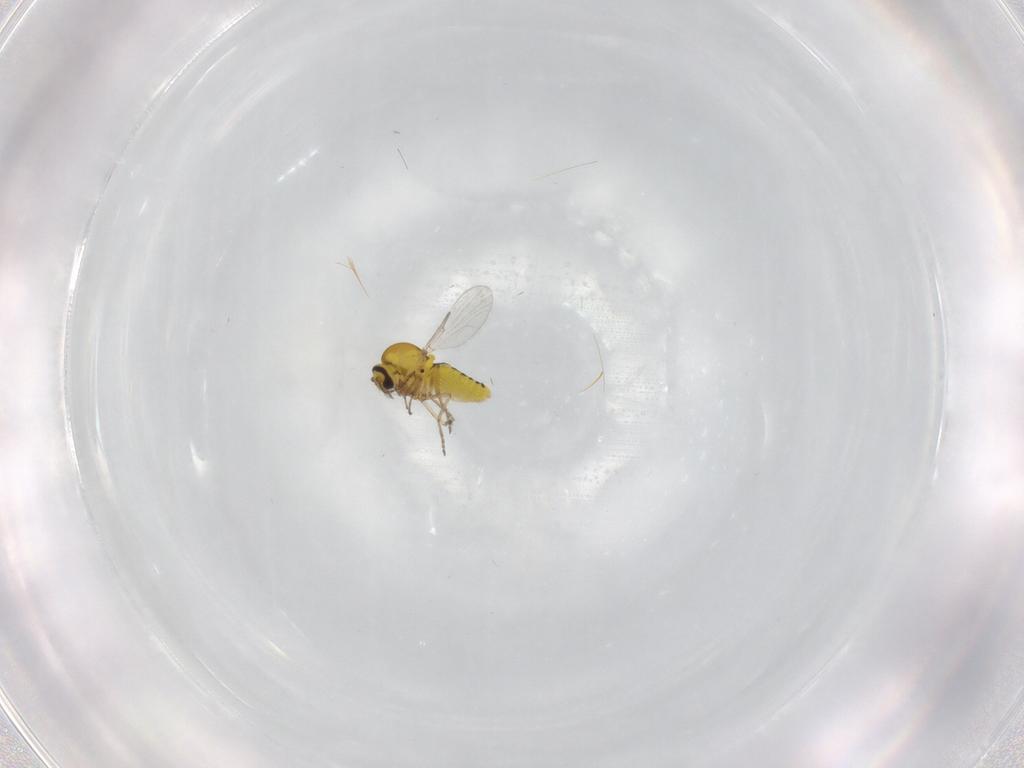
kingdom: Animalia
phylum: Arthropoda
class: Insecta
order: Diptera
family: Ceratopogonidae
